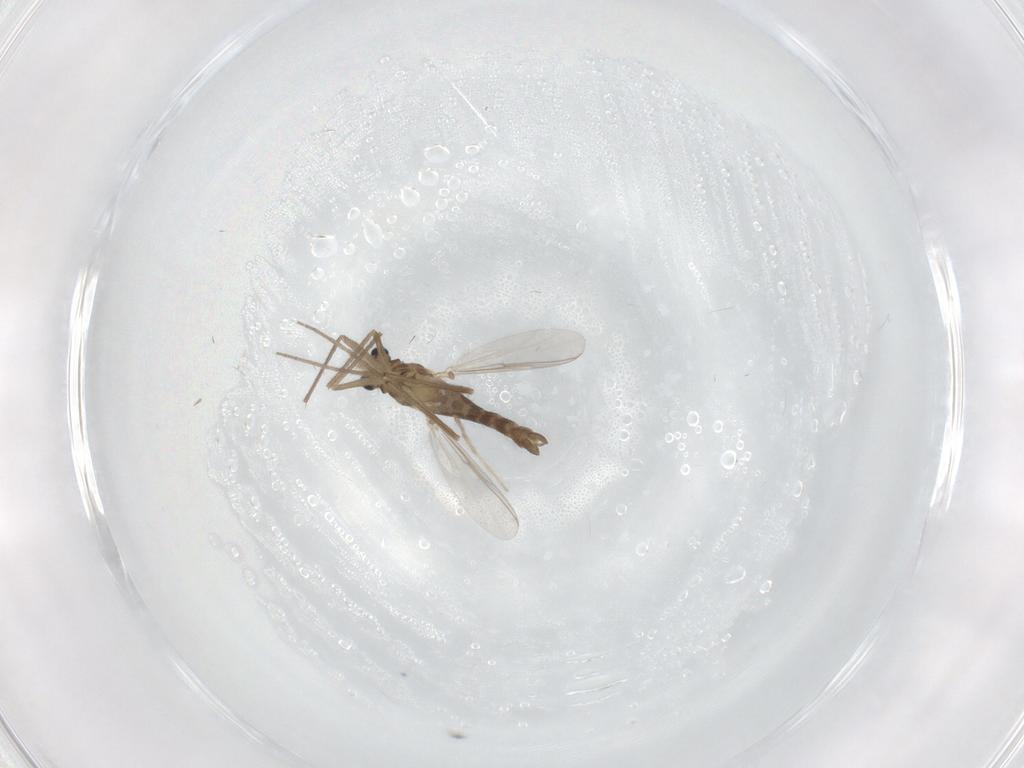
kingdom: Animalia
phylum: Arthropoda
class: Insecta
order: Diptera
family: Chironomidae
